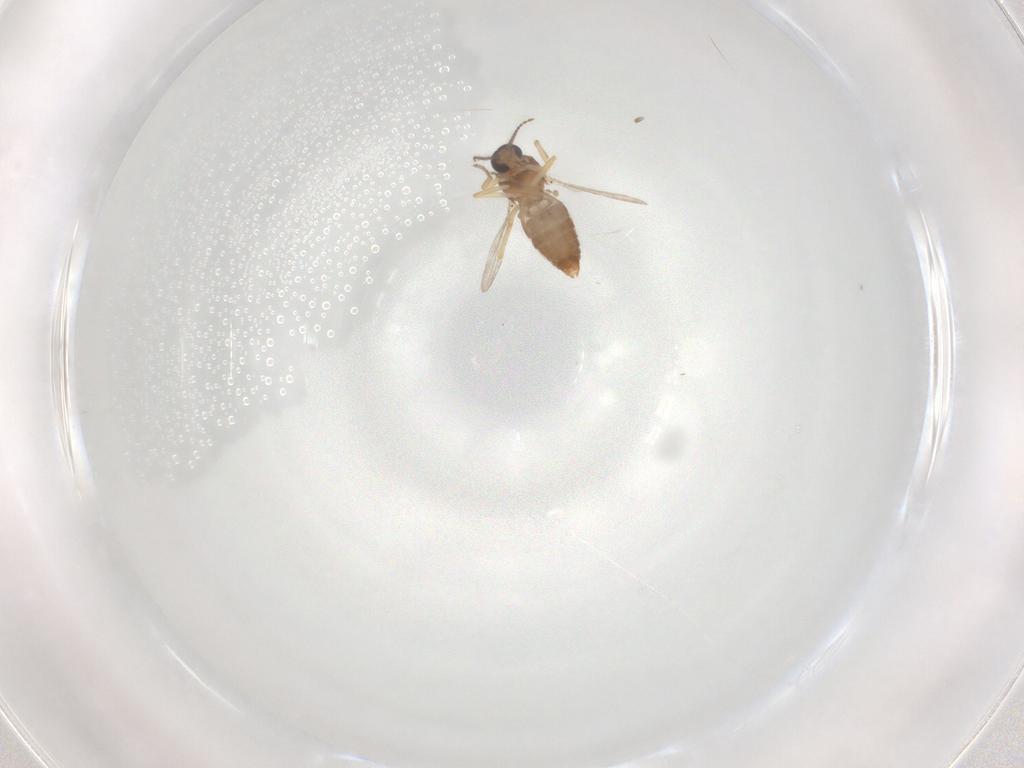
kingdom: Animalia
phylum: Arthropoda
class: Insecta
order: Diptera
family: Ceratopogonidae
